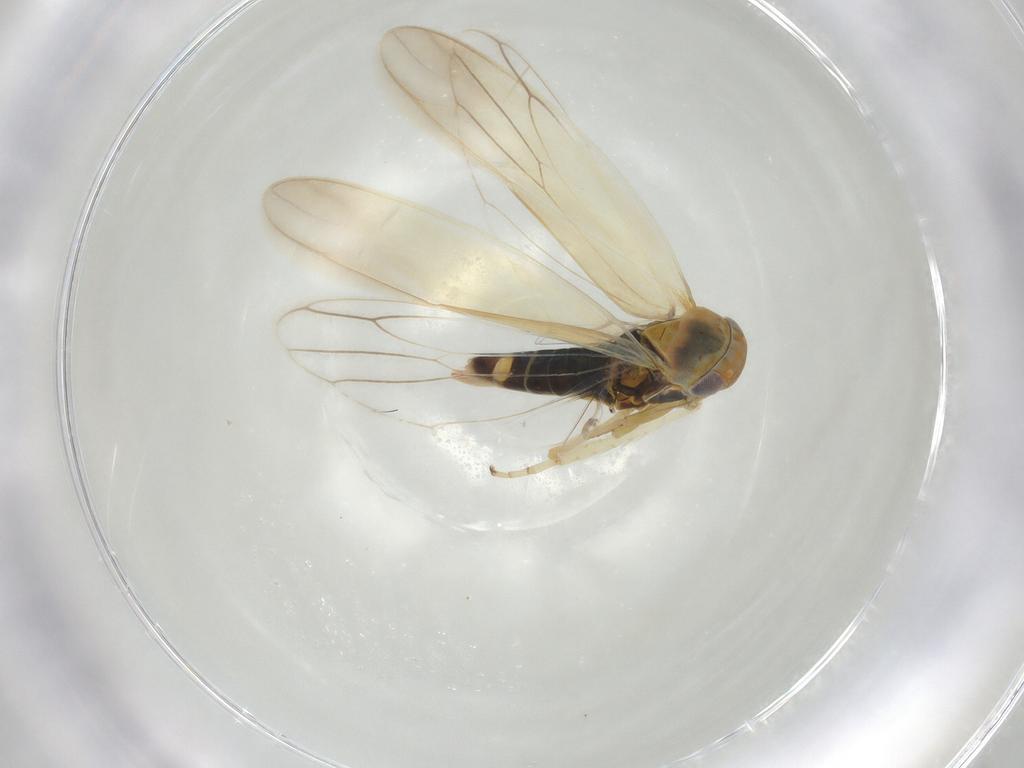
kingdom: Animalia
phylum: Arthropoda
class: Insecta
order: Hemiptera
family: Cicadellidae
